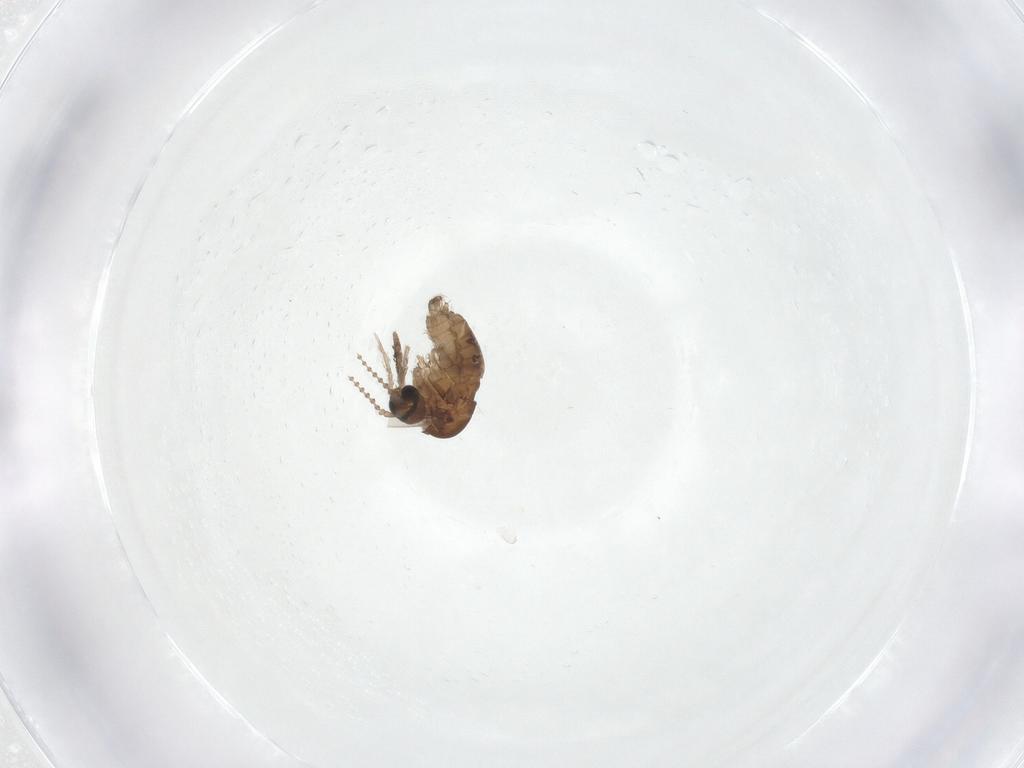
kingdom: Animalia
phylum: Arthropoda
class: Insecta
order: Diptera
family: Psychodidae
